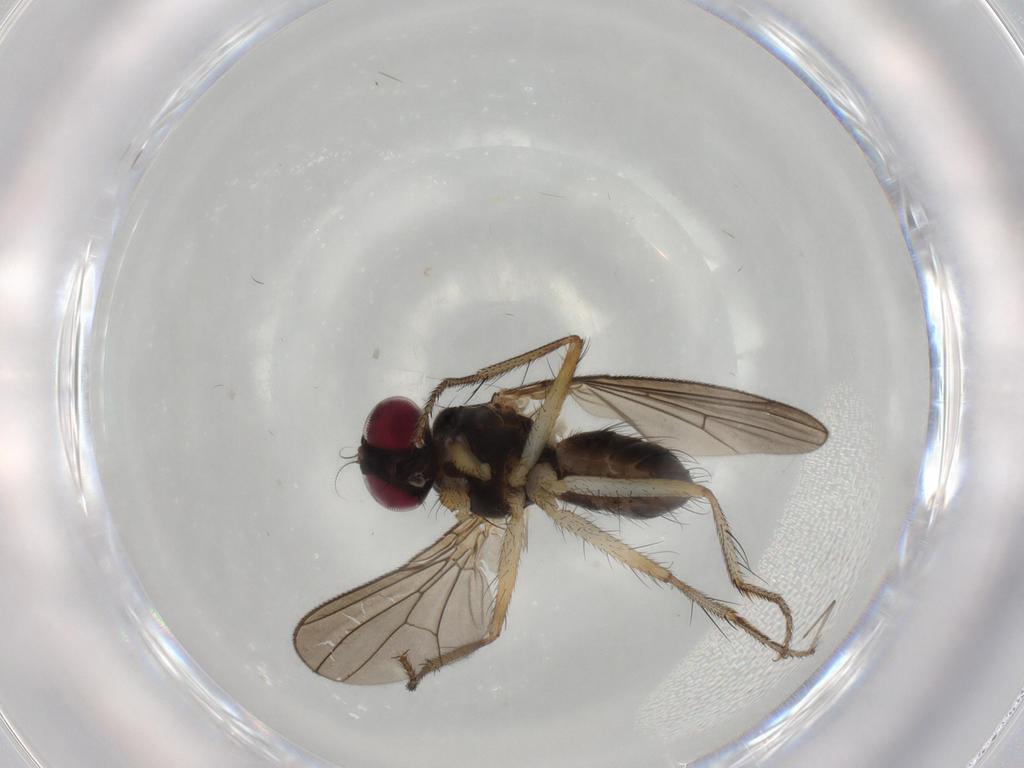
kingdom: Animalia
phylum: Arthropoda
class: Insecta
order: Diptera
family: Anthomyiidae
